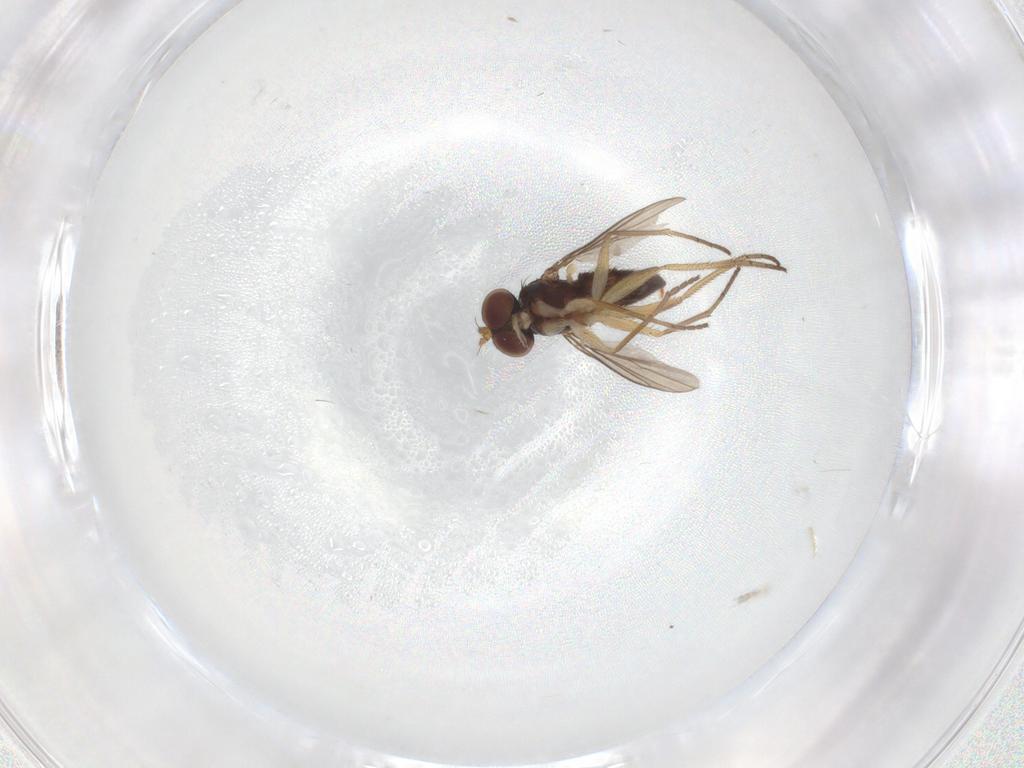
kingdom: Animalia
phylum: Arthropoda
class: Insecta
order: Diptera
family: Dolichopodidae
